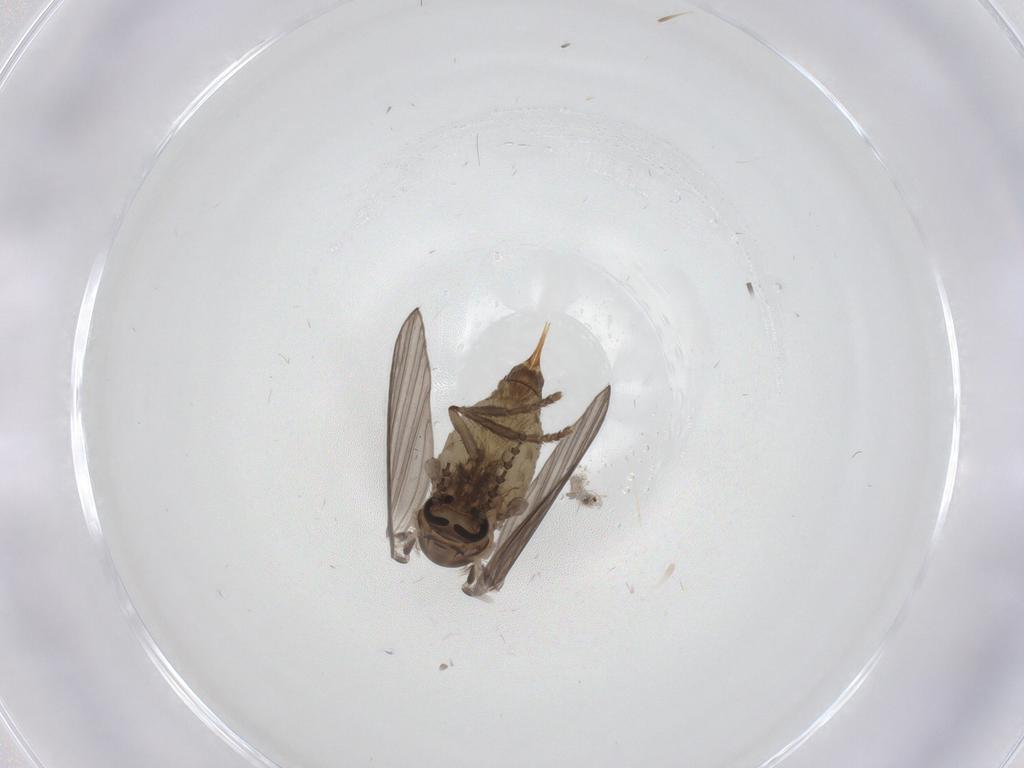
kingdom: Animalia
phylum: Arthropoda
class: Insecta
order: Diptera
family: Psychodidae
